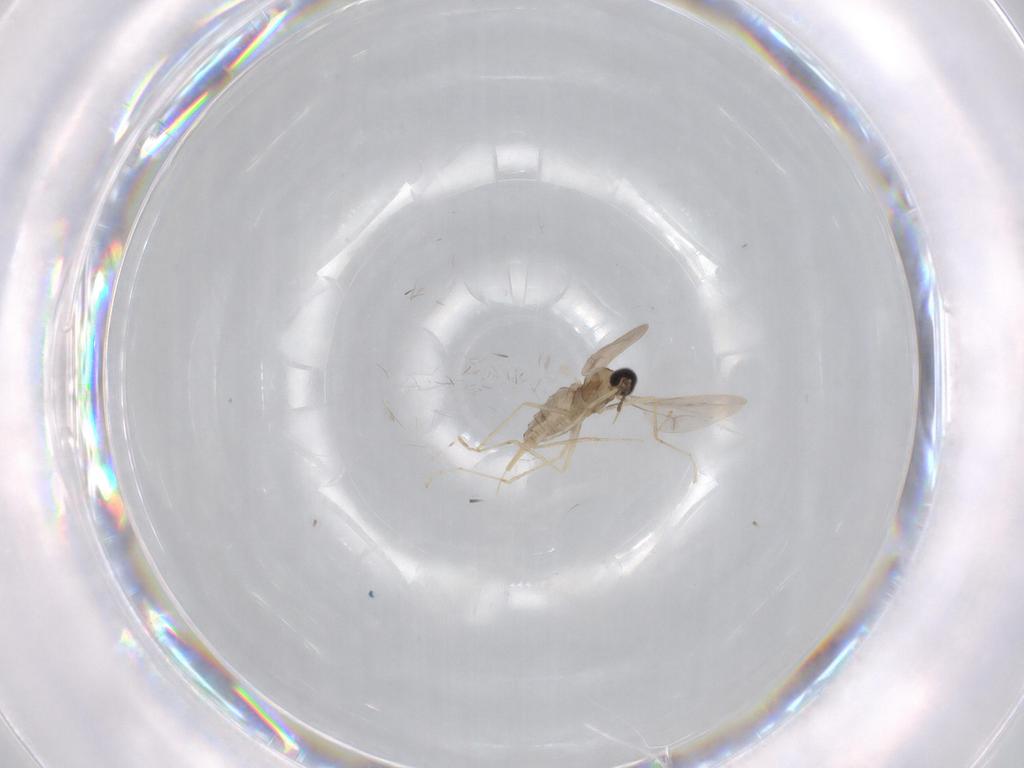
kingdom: Animalia
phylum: Arthropoda
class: Insecta
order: Diptera
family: Cecidomyiidae
